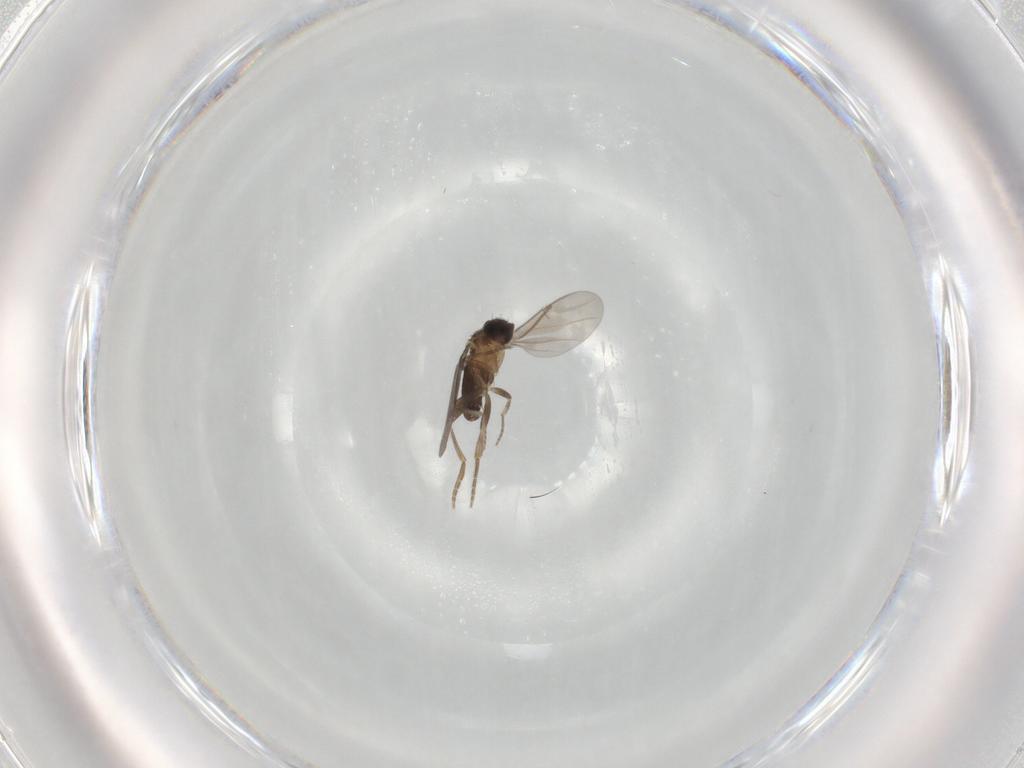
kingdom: Animalia
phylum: Arthropoda
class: Insecta
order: Diptera
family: Phoridae
